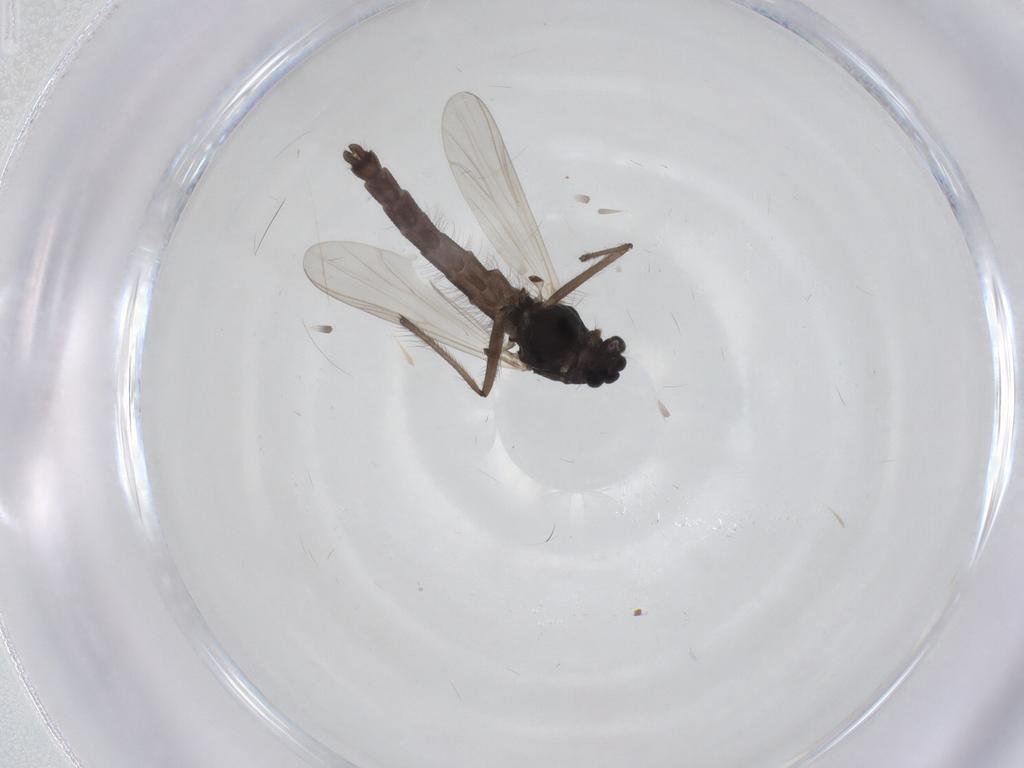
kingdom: Animalia
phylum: Arthropoda
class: Insecta
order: Diptera
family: Chironomidae
